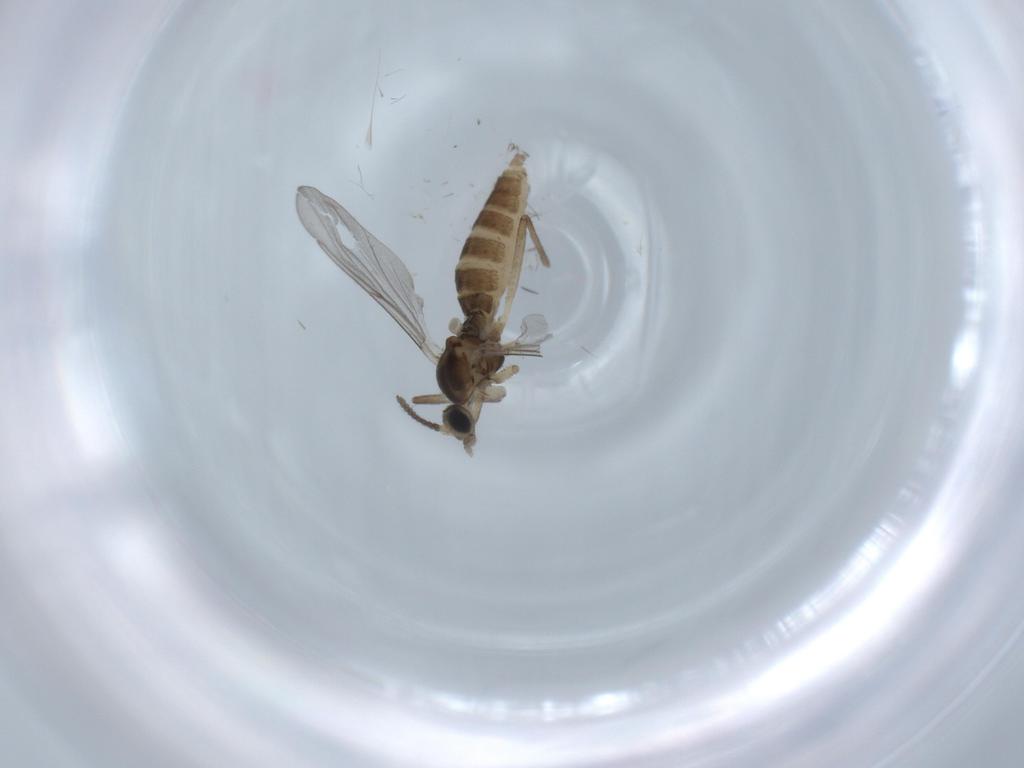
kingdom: Animalia
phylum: Arthropoda
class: Insecta
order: Diptera
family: Cecidomyiidae
